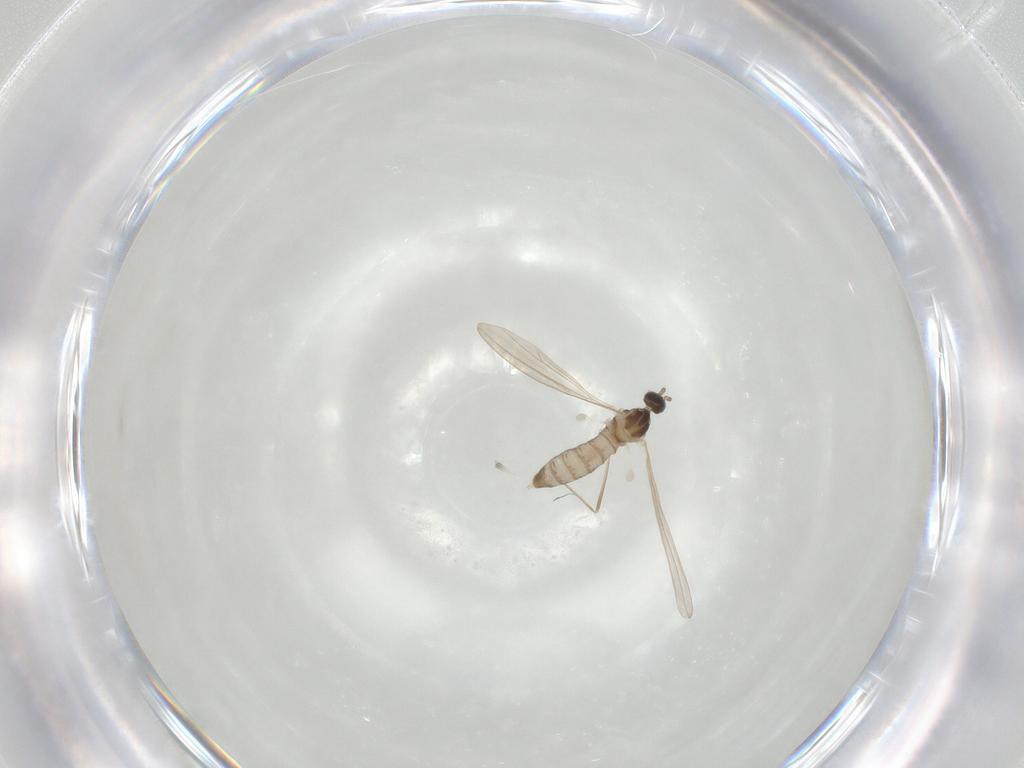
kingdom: Animalia
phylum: Arthropoda
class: Insecta
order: Diptera
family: Cecidomyiidae
